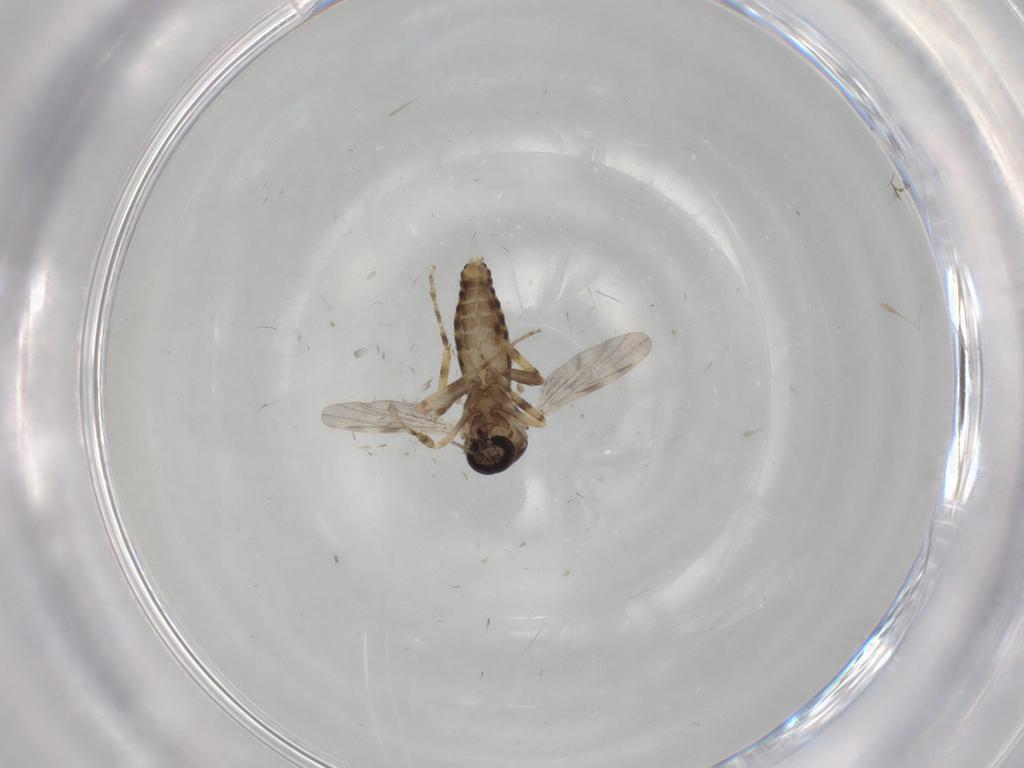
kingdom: Animalia
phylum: Arthropoda
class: Insecta
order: Diptera
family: Ceratopogonidae
